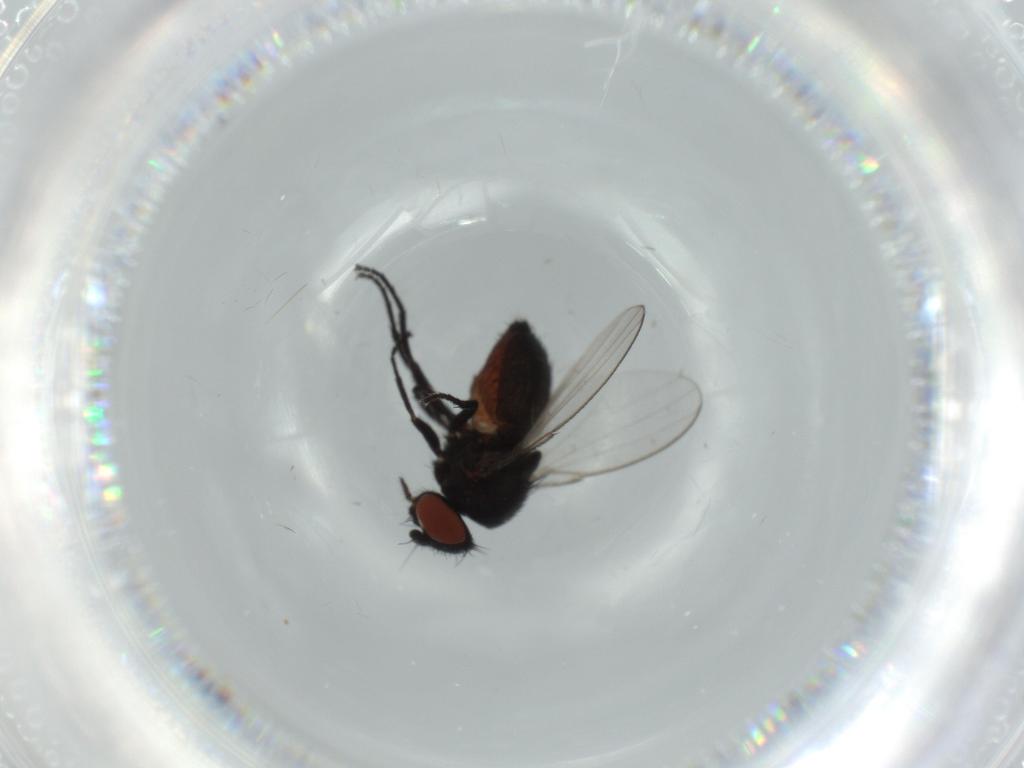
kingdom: Animalia
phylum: Arthropoda
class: Insecta
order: Diptera
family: Milichiidae
